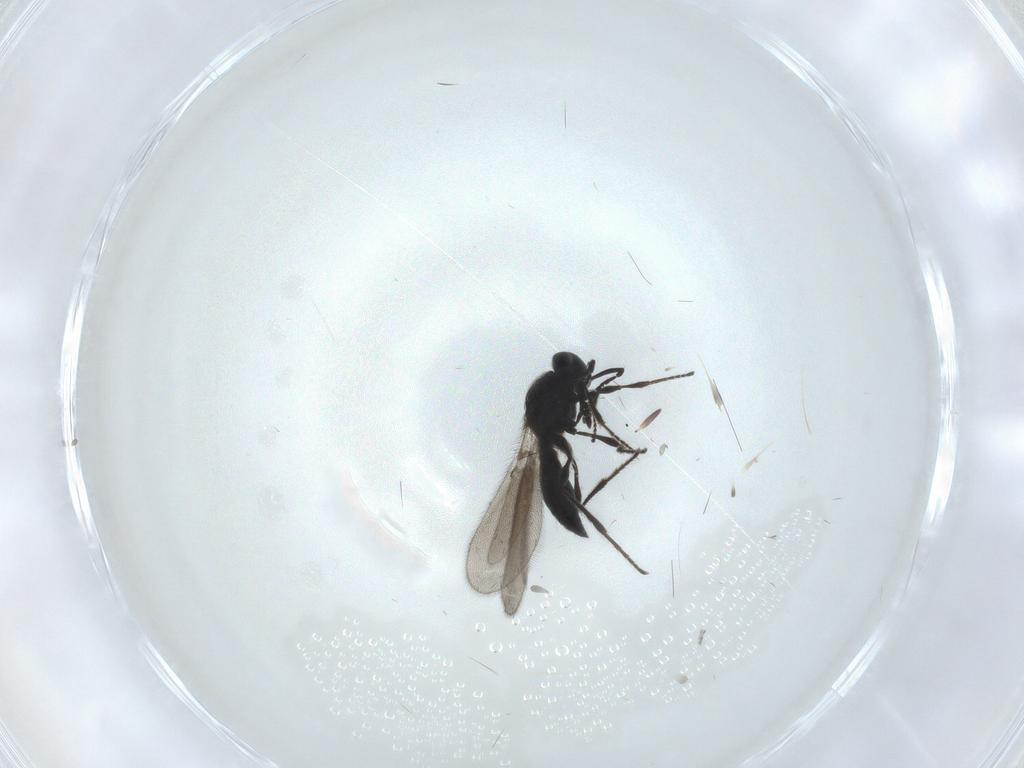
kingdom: Animalia
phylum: Arthropoda
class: Insecta
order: Hymenoptera
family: Platygastridae
